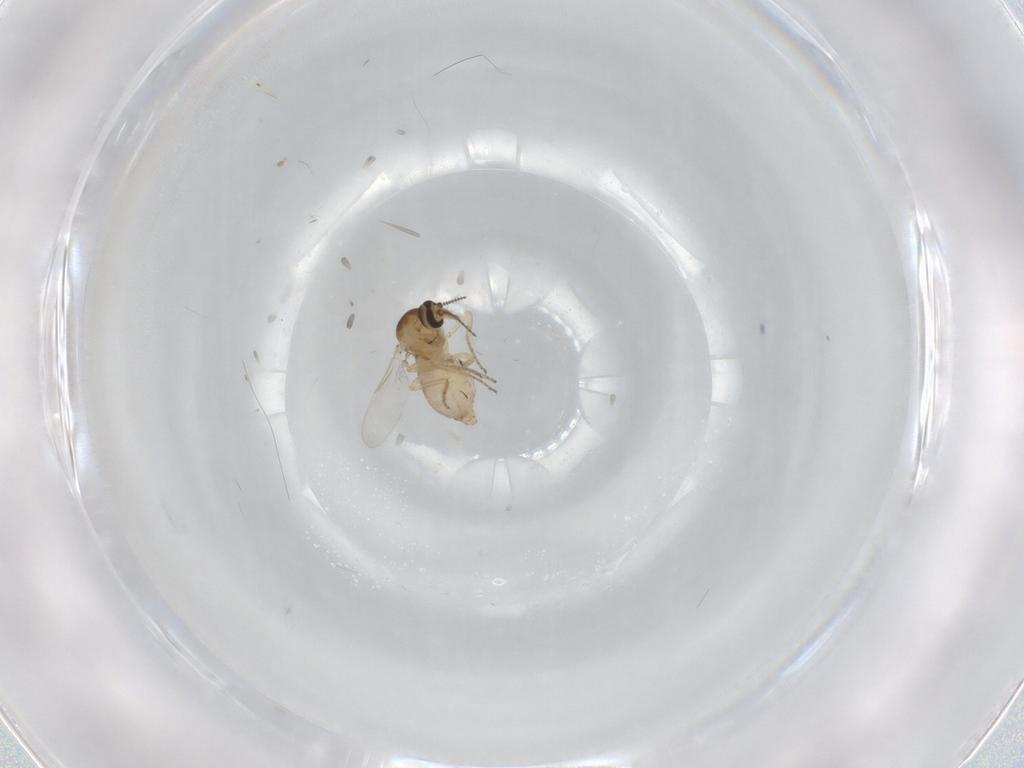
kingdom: Animalia
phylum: Arthropoda
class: Insecta
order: Diptera
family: Ceratopogonidae
